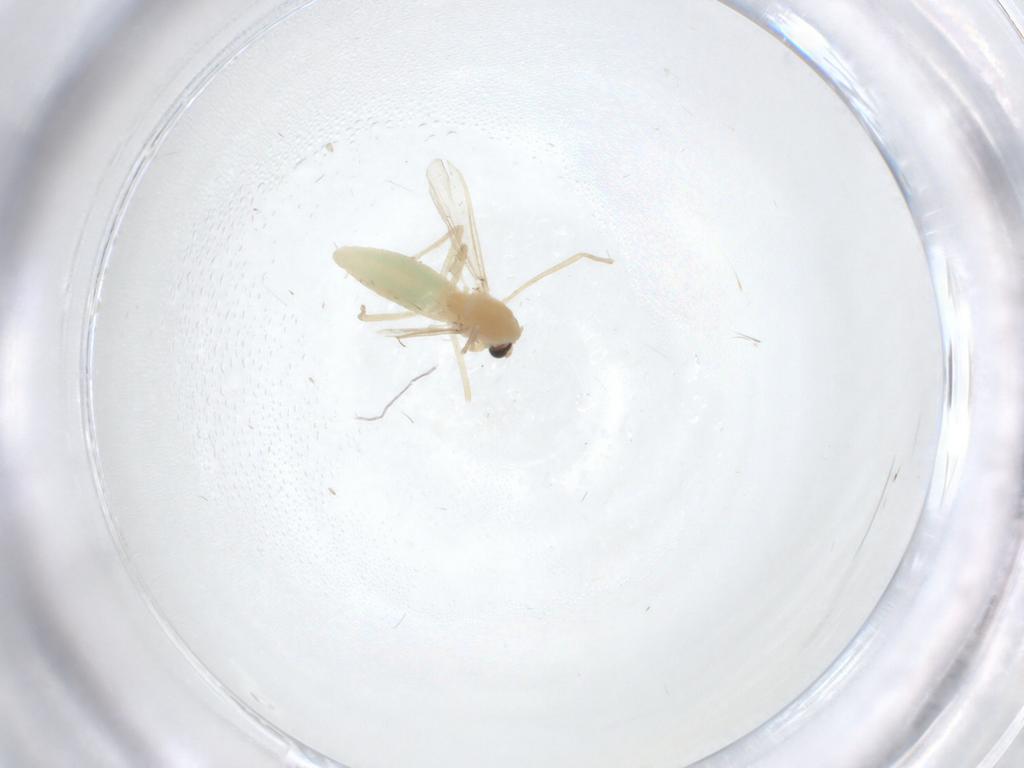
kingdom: Animalia
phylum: Arthropoda
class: Insecta
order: Diptera
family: Chironomidae
